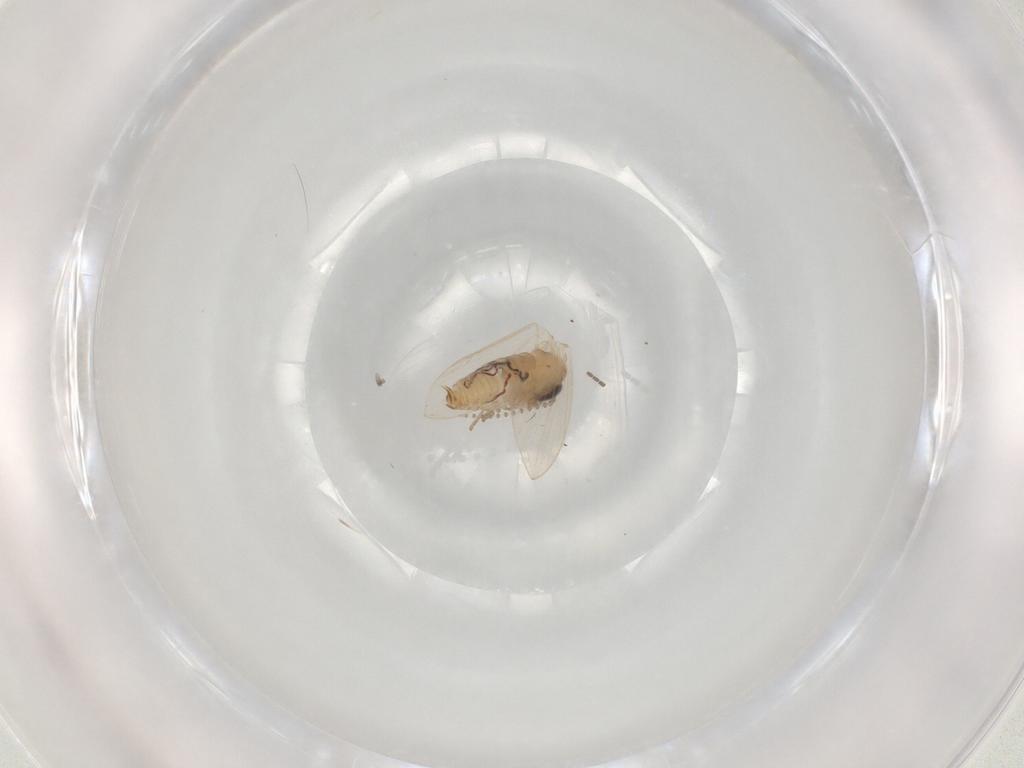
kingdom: Animalia
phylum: Arthropoda
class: Insecta
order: Diptera
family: Psychodidae
